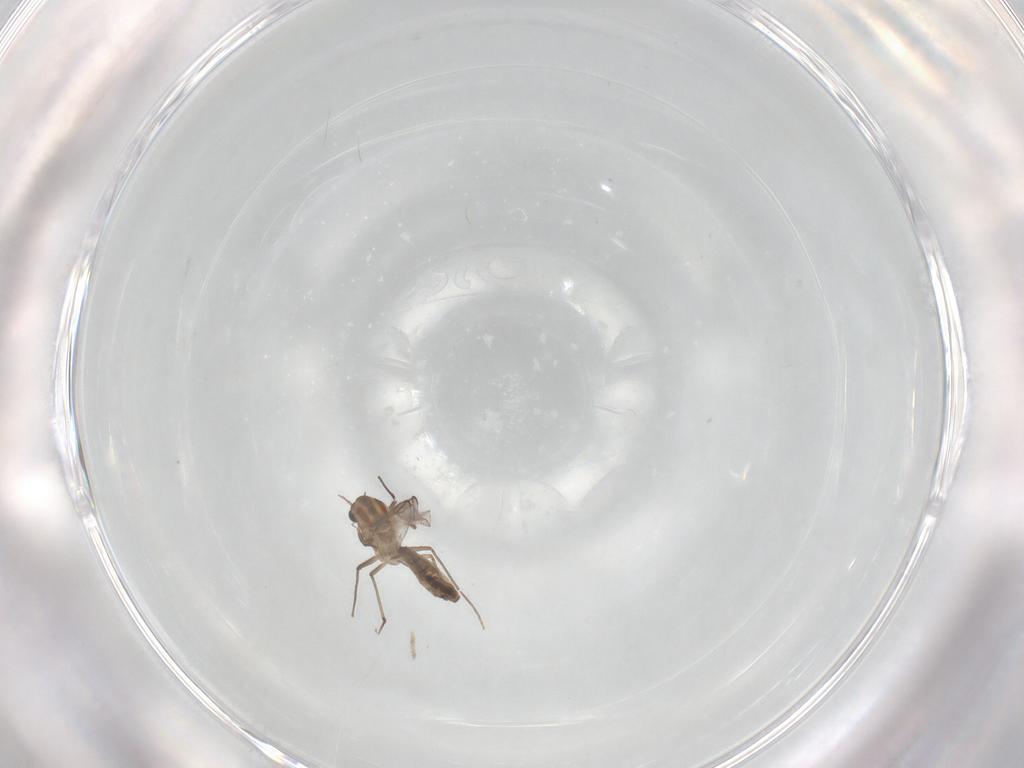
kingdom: Animalia
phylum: Arthropoda
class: Insecta
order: Diptera
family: Chironomidae
